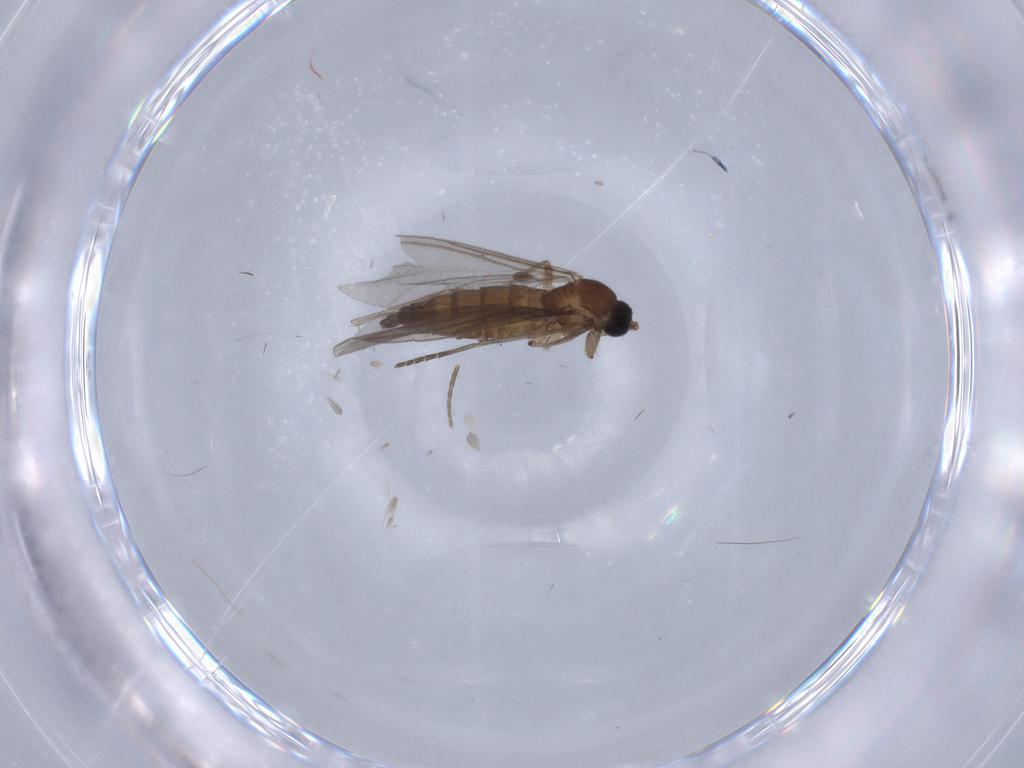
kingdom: Animalia
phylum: Arthropoda
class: Insecta
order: Diptera
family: Sciaridae
